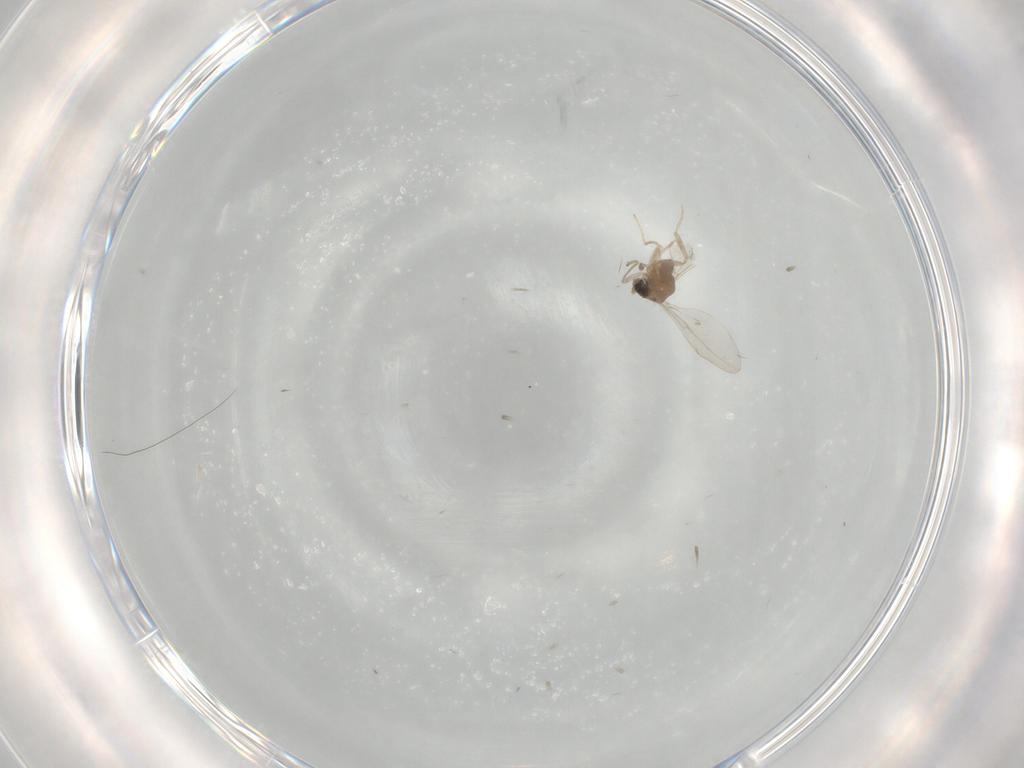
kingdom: Animalia
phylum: Arthropoda
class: Insecta
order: Diptera
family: Cecidomyiidae
